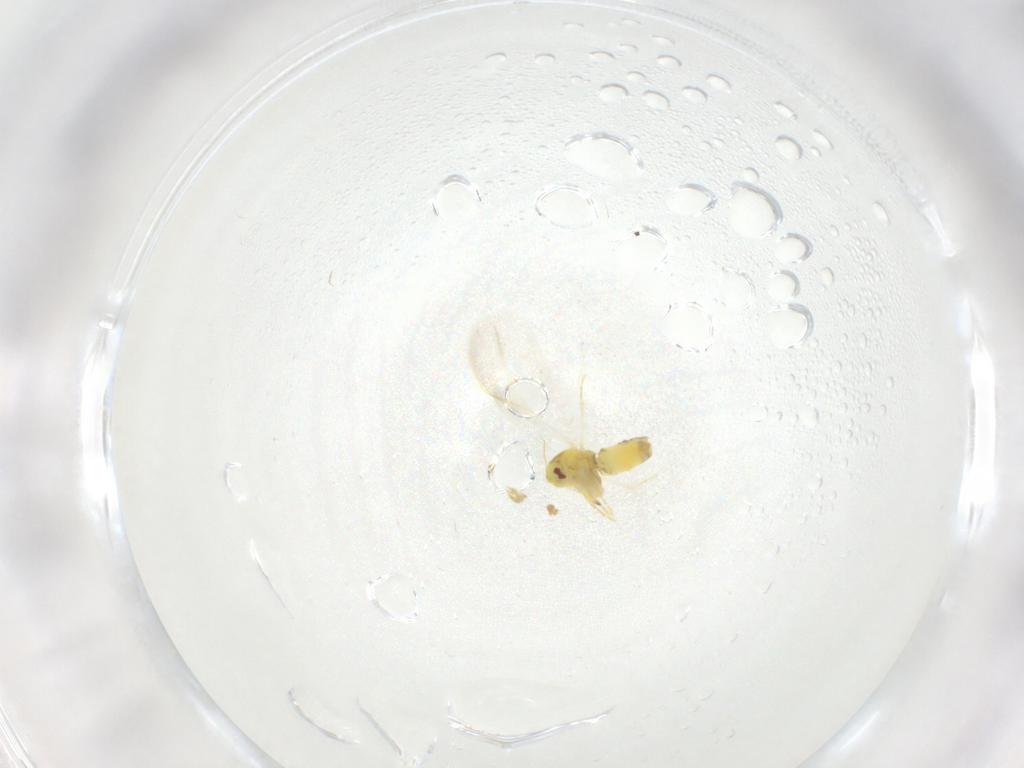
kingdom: Animalia
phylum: Arthropoda
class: Insecta
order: Hemiptera
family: Aleyrodidae
